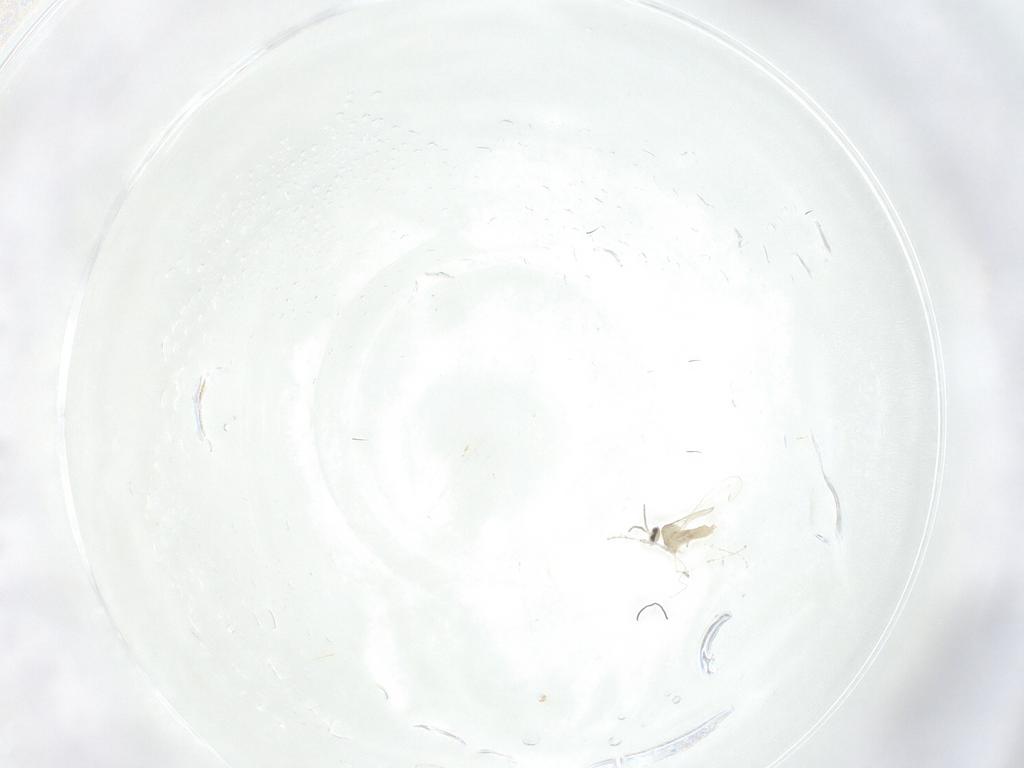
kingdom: Animalia
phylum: Arthropoda
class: Insecta
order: Diptera
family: Tabanidae
